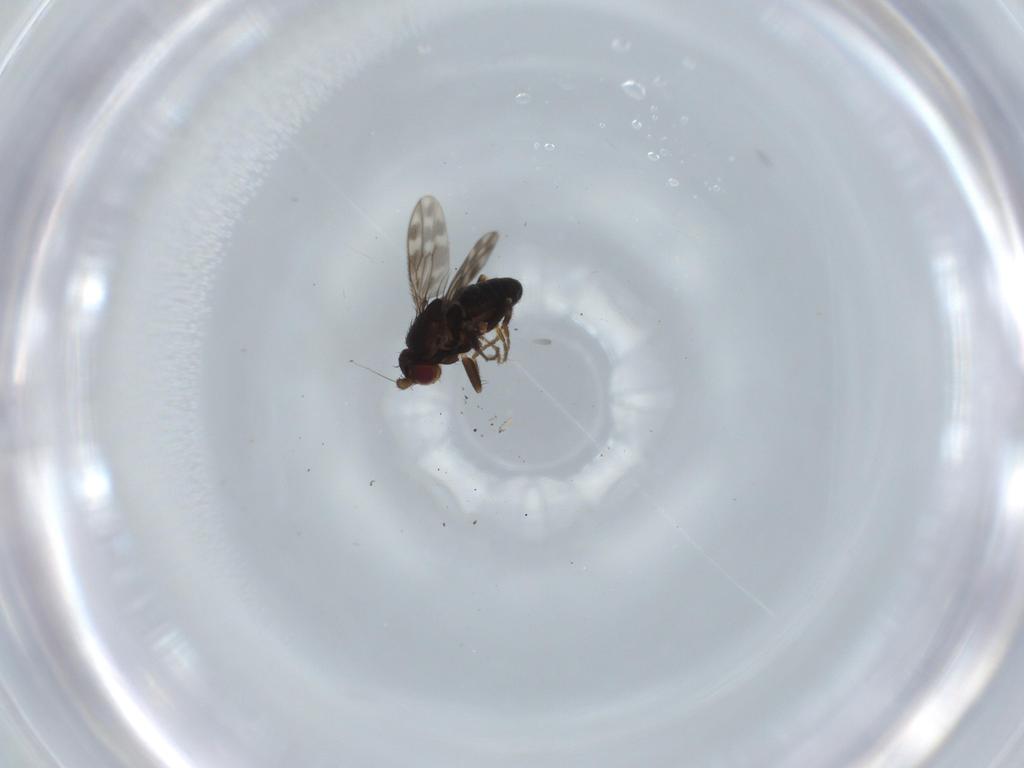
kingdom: Animalia
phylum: Arthropoda
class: Insecta
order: Diptera
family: Sphaeroceridae
